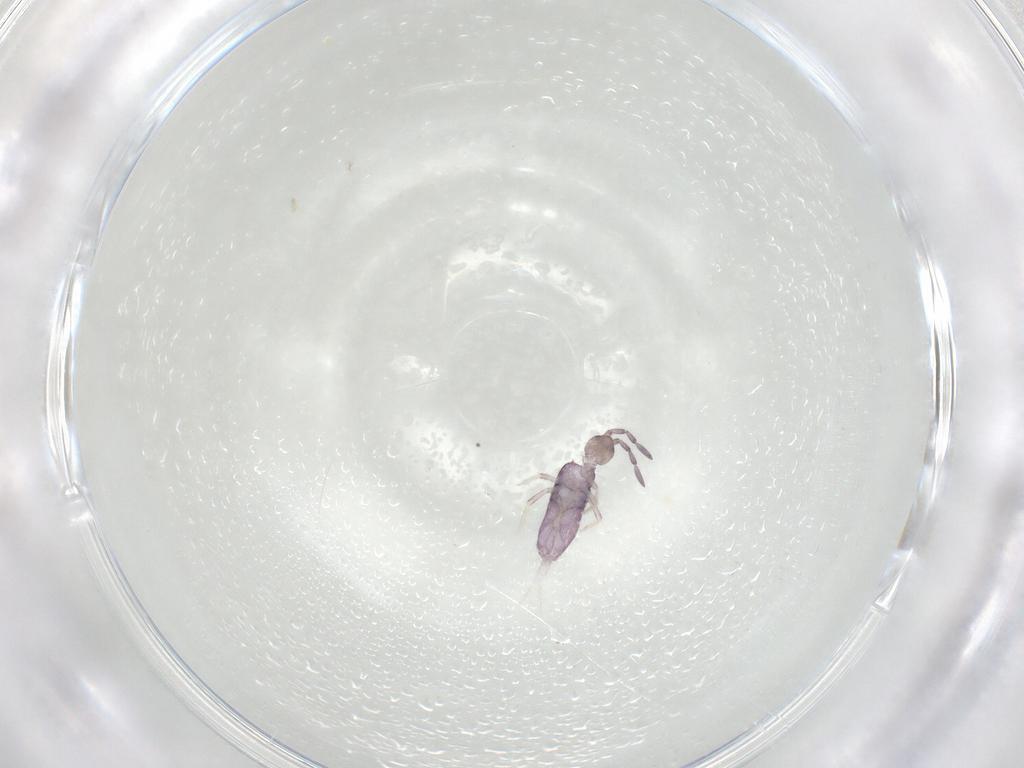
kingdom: Animalia
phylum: Arthropoda
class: Collembola
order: Entomobryomorpha
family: Entomobryidae
